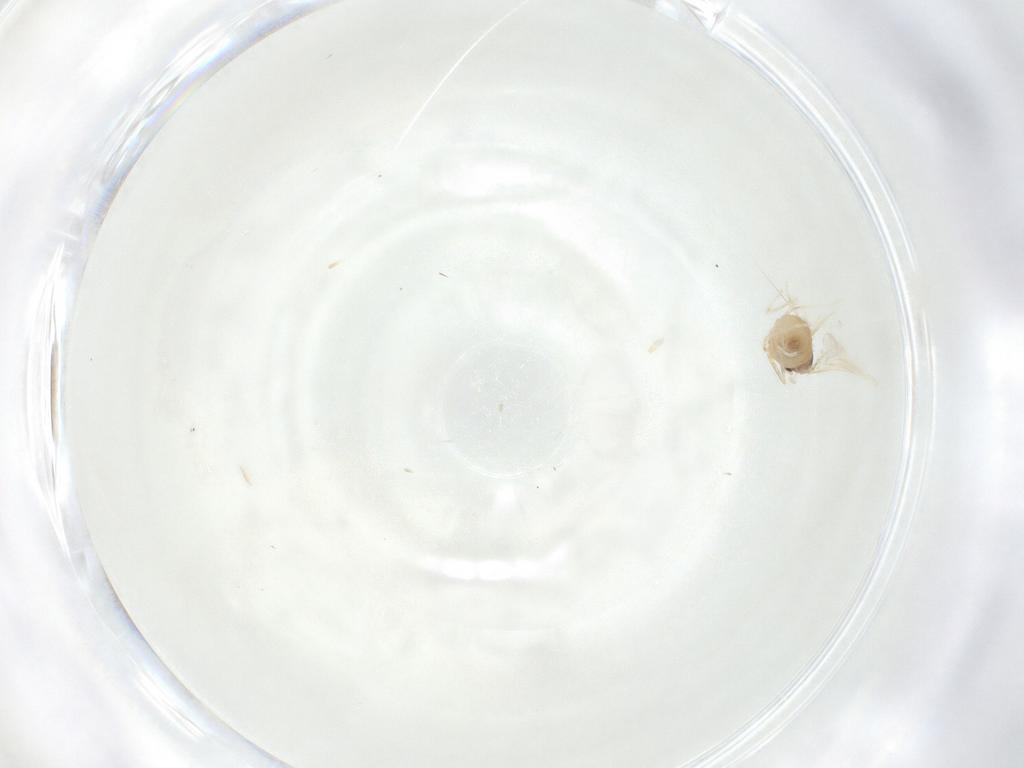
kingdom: Animalia
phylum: Arthropoda
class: Insecta
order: Diptera
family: Cecidomyiidae
